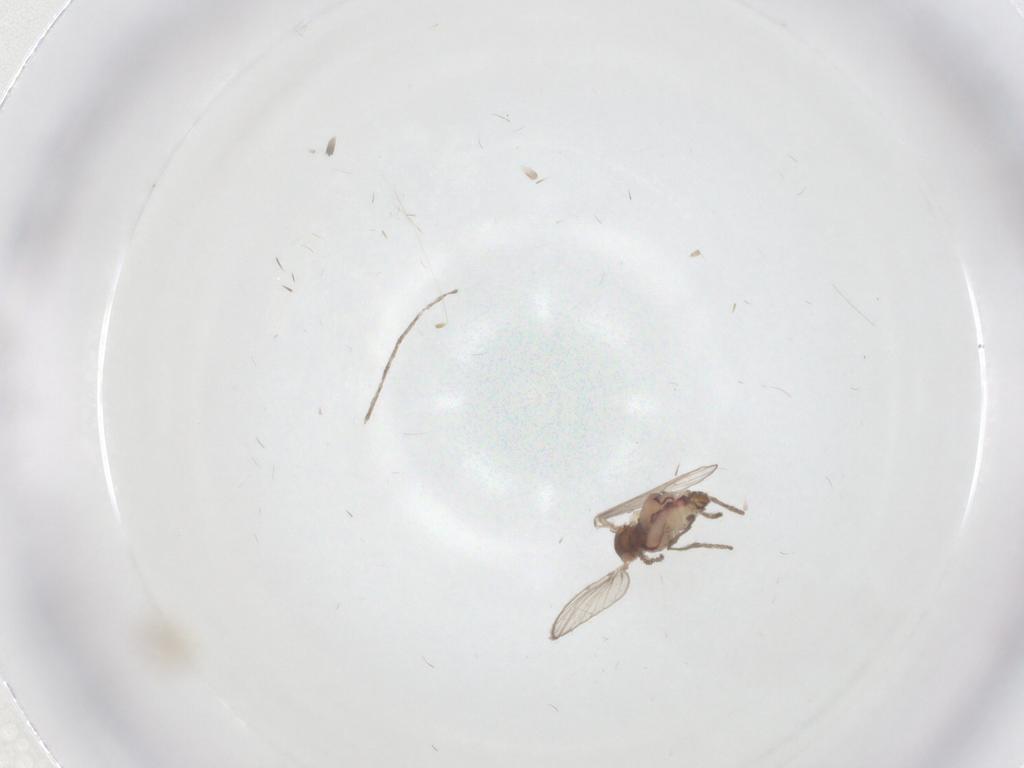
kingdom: Animalia
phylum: Arthropoda
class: Insecta
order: Diptera
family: Psychodidae
